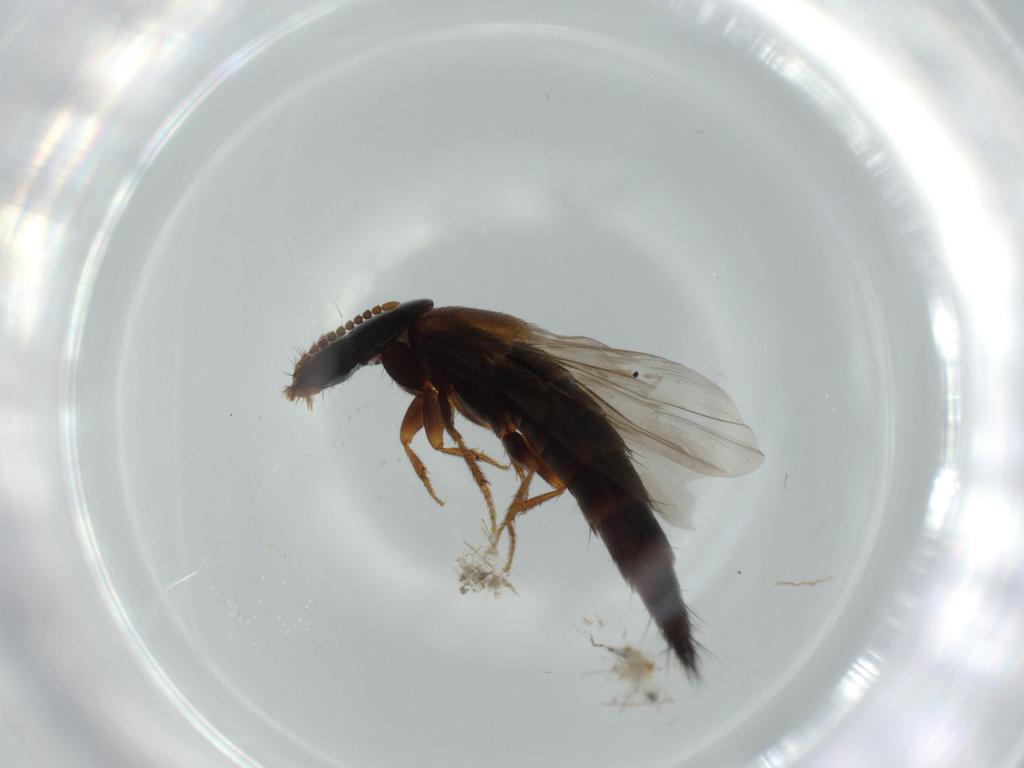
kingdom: Animalia
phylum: Arthropoda
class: Insecta
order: Coleoptera
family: Staphylinidae
